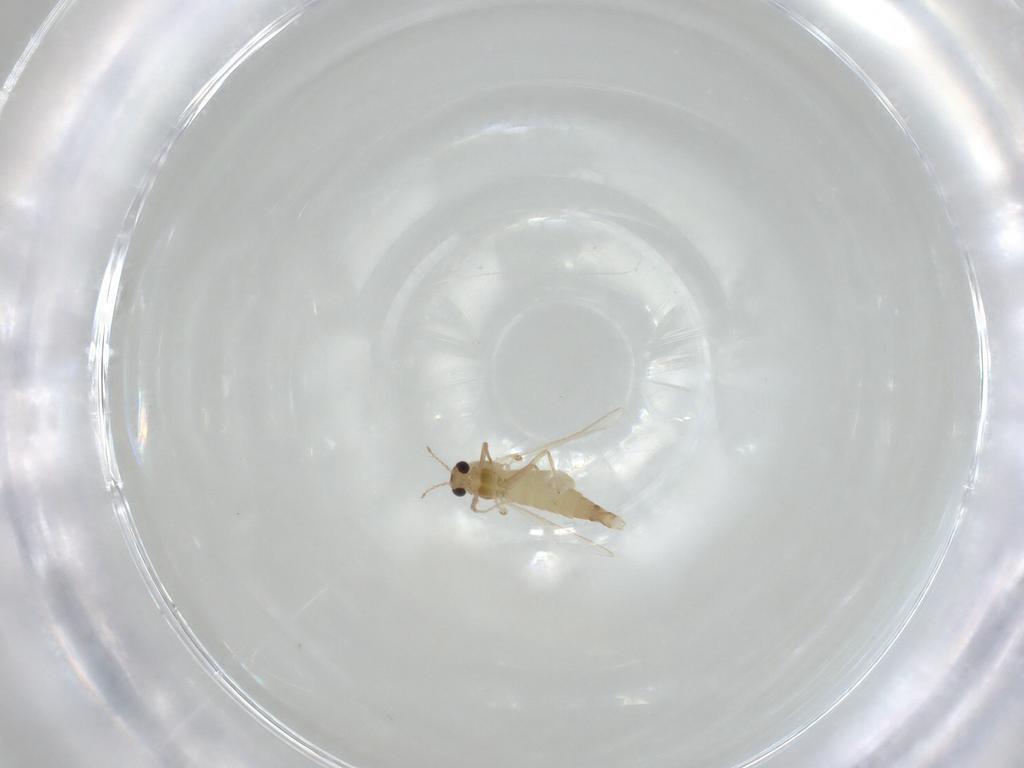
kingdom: Animalia
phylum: Arthropoda
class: Insecta
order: Diptera
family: Chironomidae
